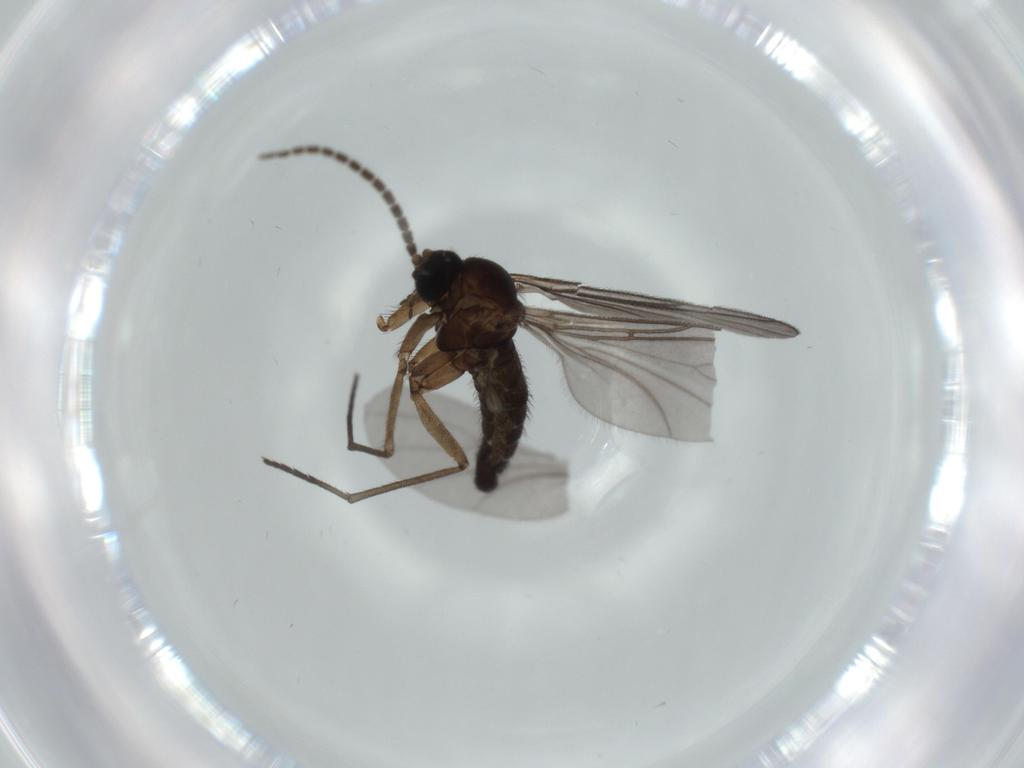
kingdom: Animalia
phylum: Arthropoda
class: Insecta
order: Diptera
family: Sciaridae
